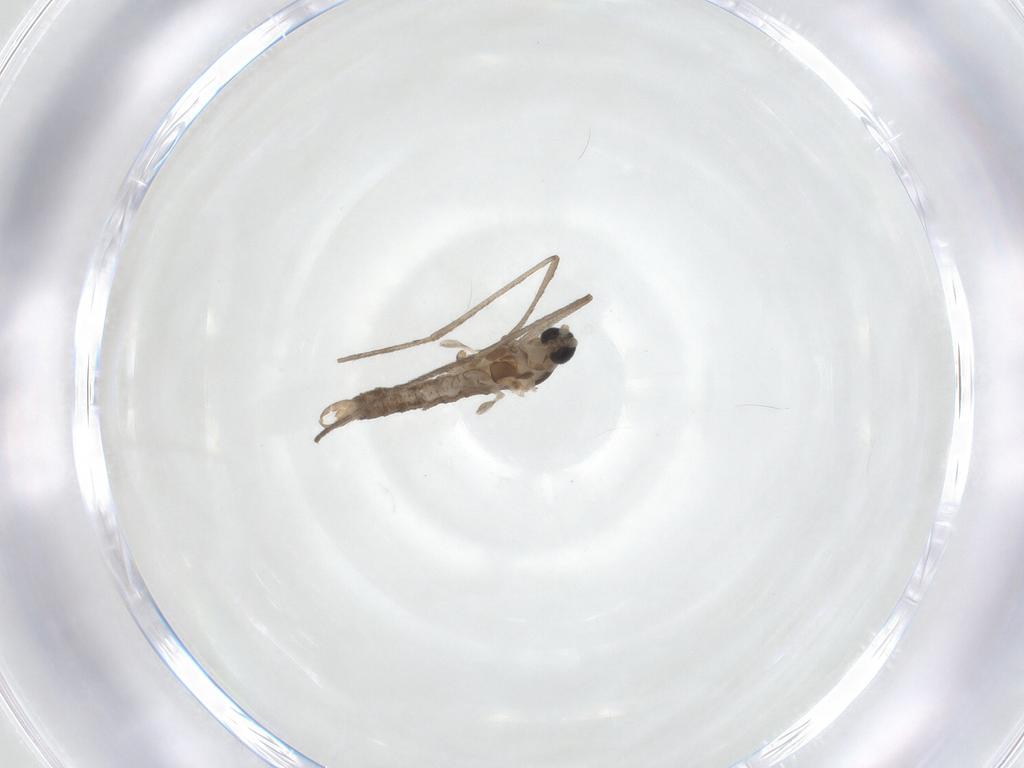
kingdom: Animalia
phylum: Arthropoda
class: Insecta
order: Diptera
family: Cecidomyiidae
